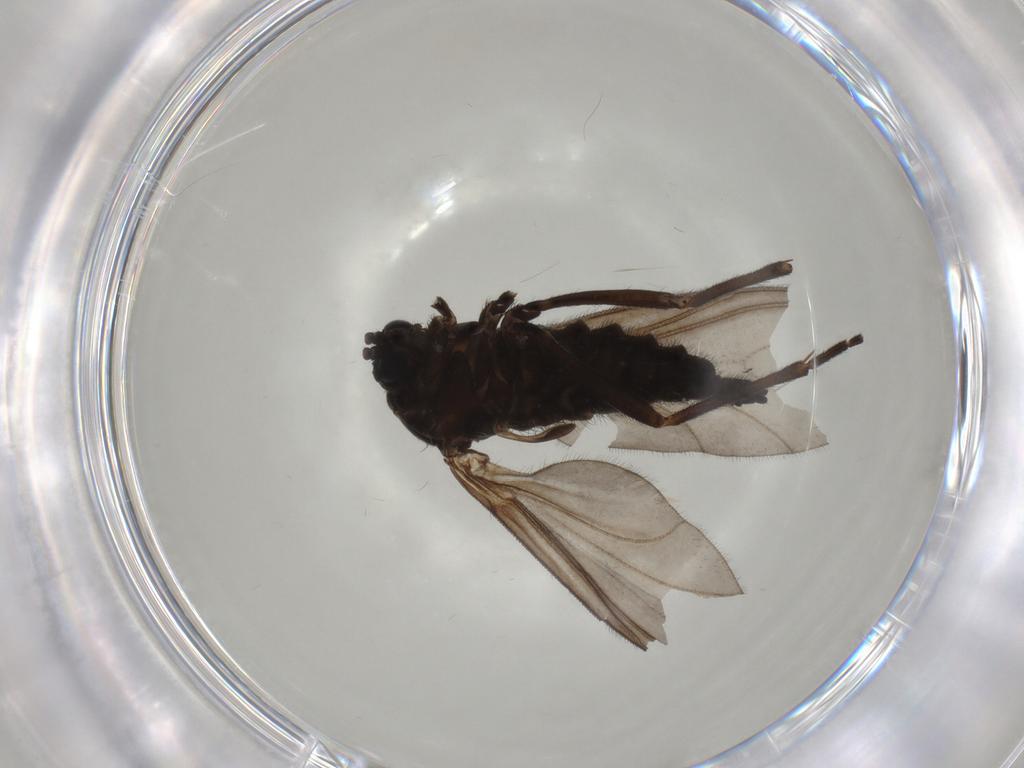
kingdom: Animalia
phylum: Arthropoda
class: Insecta
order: Diptera
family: Sciaridae
